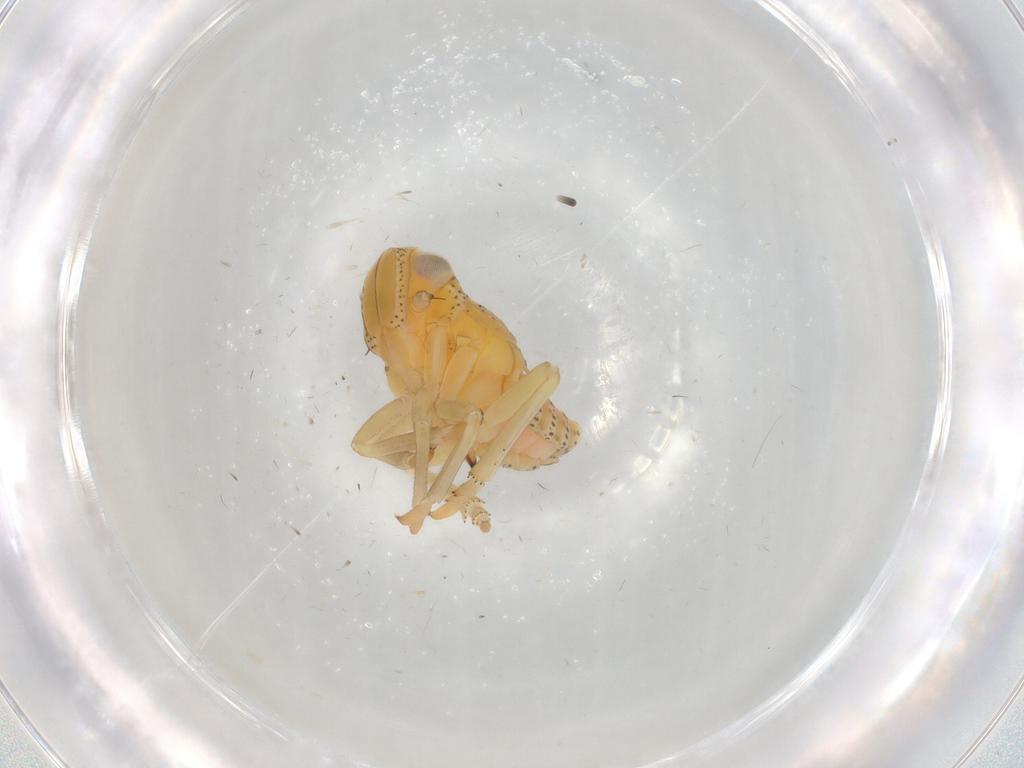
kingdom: Animalia
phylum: Arthropoda
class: Insecta
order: Hemiptera
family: Tropiduchidae
